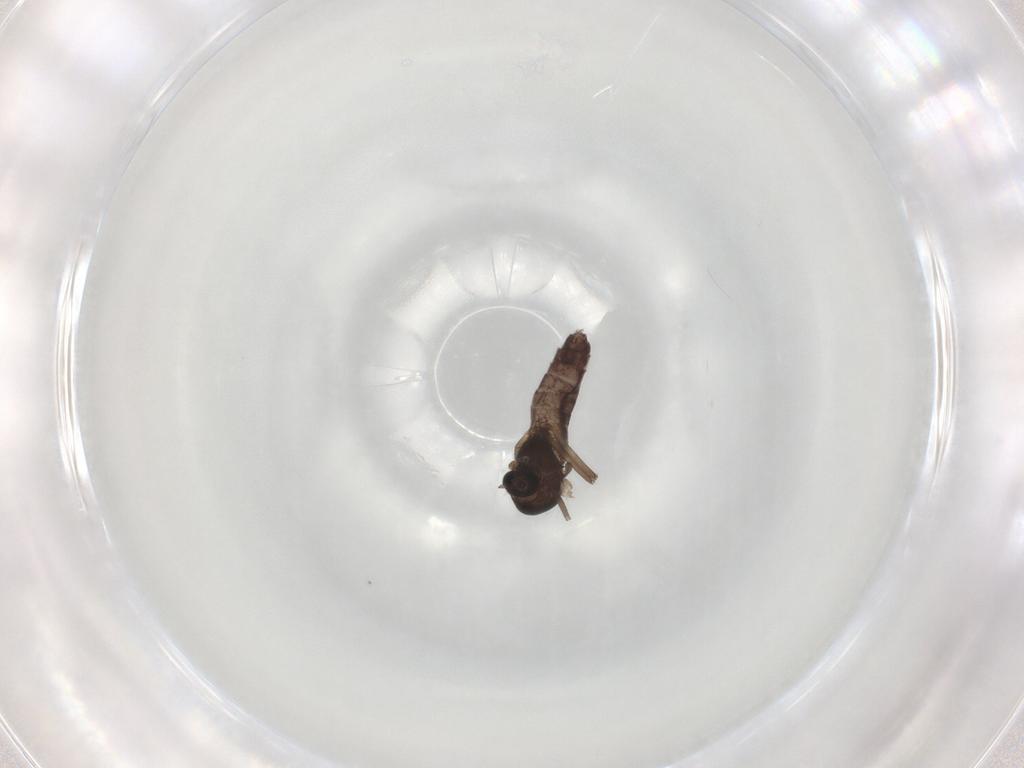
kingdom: Animalia
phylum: Arthropoda
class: Insecta
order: Diptera
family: Chironomidae
